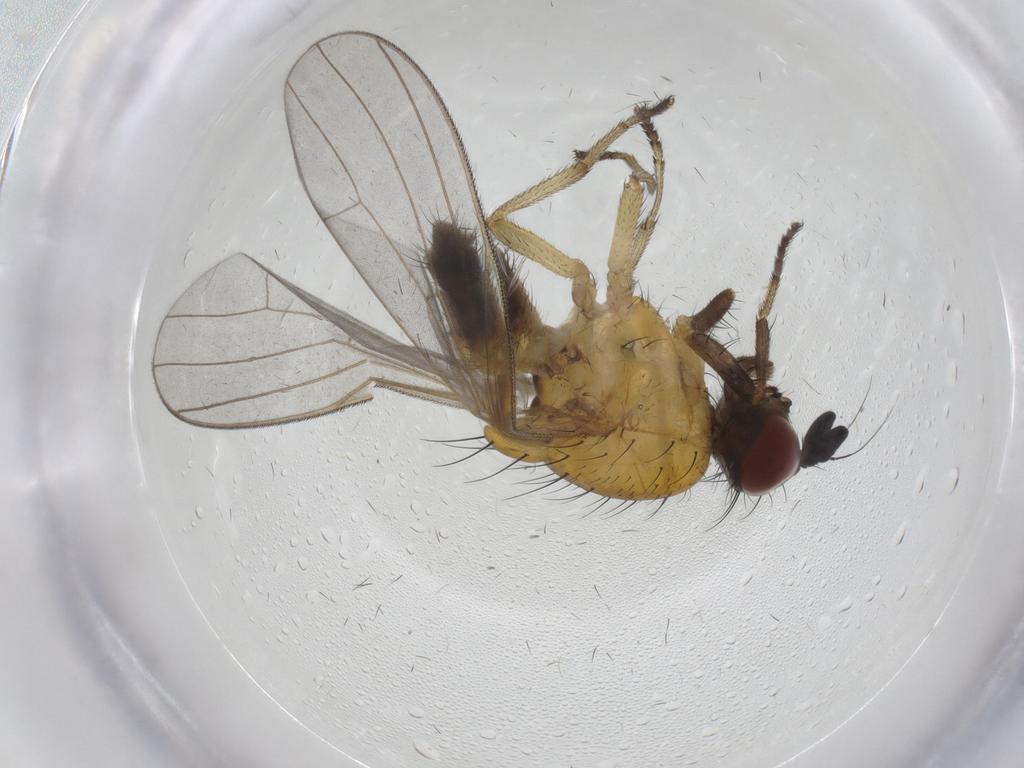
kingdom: Animalia
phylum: Arthropoda
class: Insecta
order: Diptera
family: Lauxaniidae
